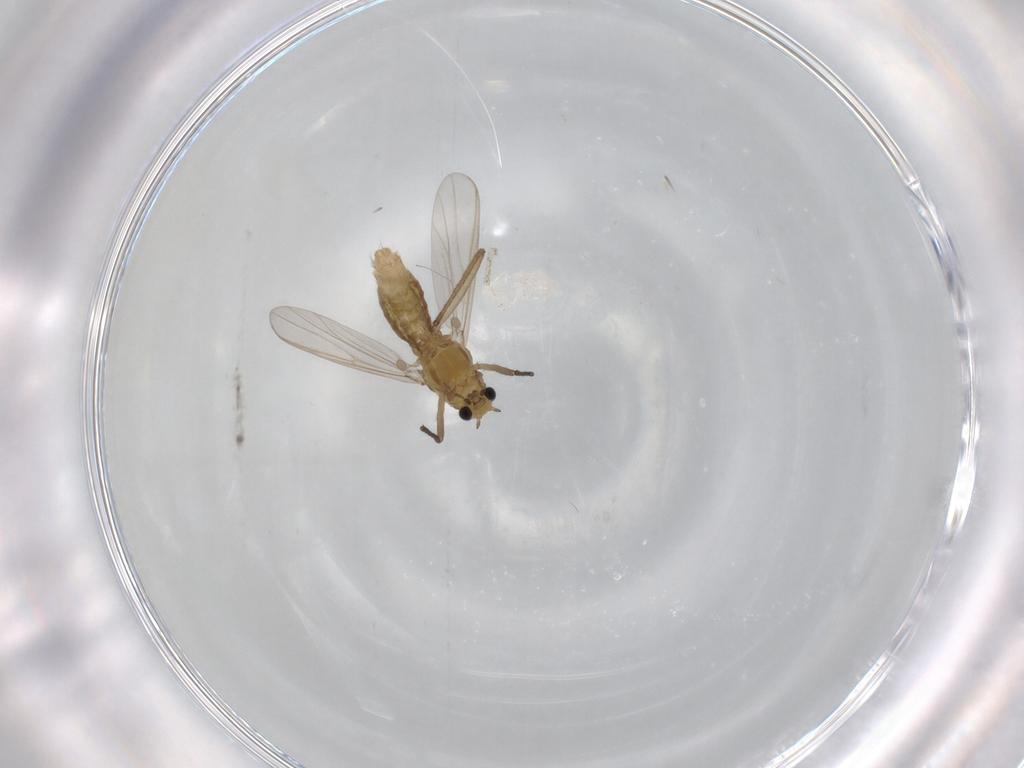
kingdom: Animalia
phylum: Arthropoda
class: Insecta
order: Diptera
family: Chironomidae
